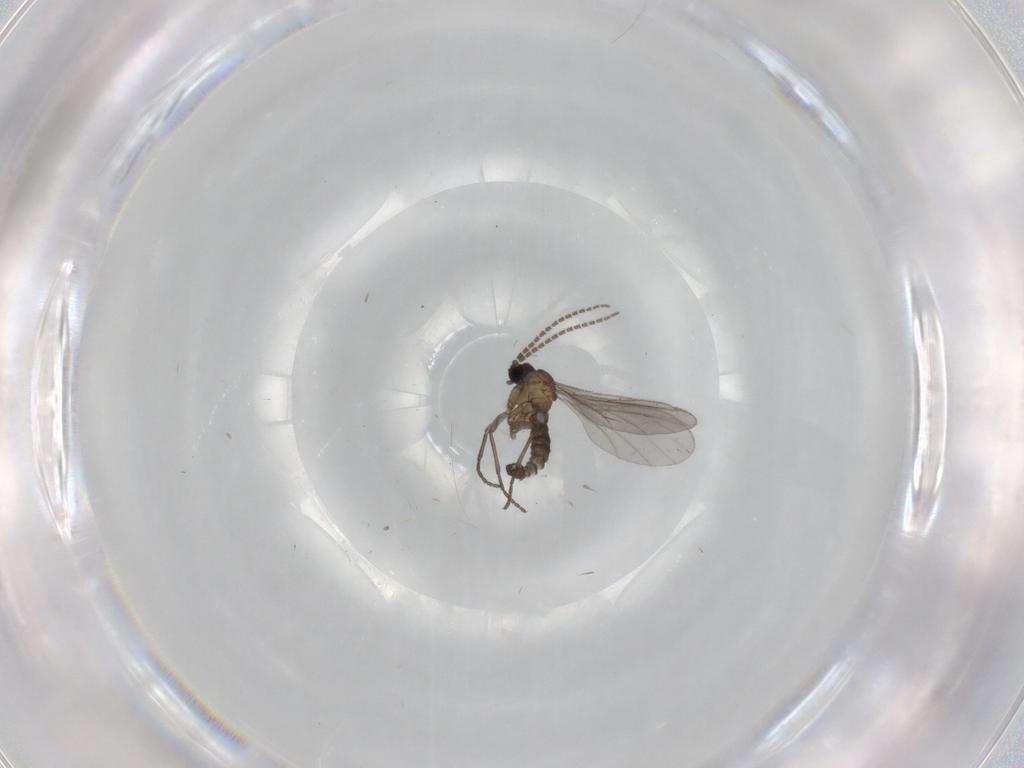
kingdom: Animalia
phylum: Arthropoda
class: Insecta
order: Diptera
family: Sciaridae
